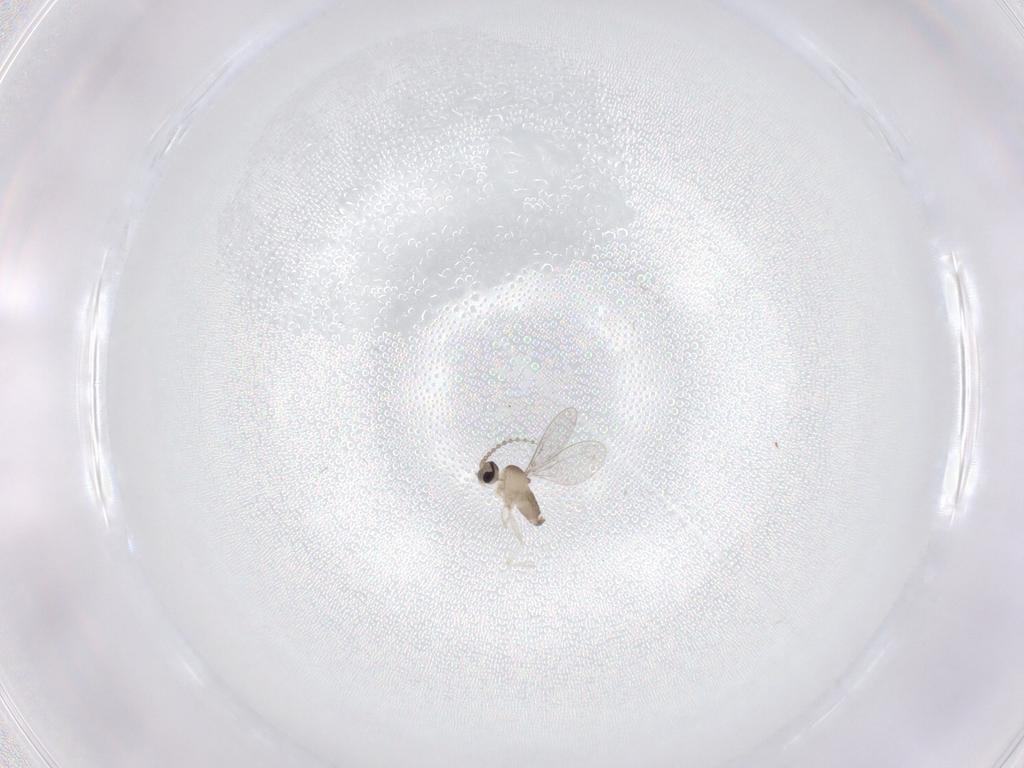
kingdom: Animalia
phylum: Arthropoda
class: Insecta
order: Diptera
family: Cecidomyiidae
